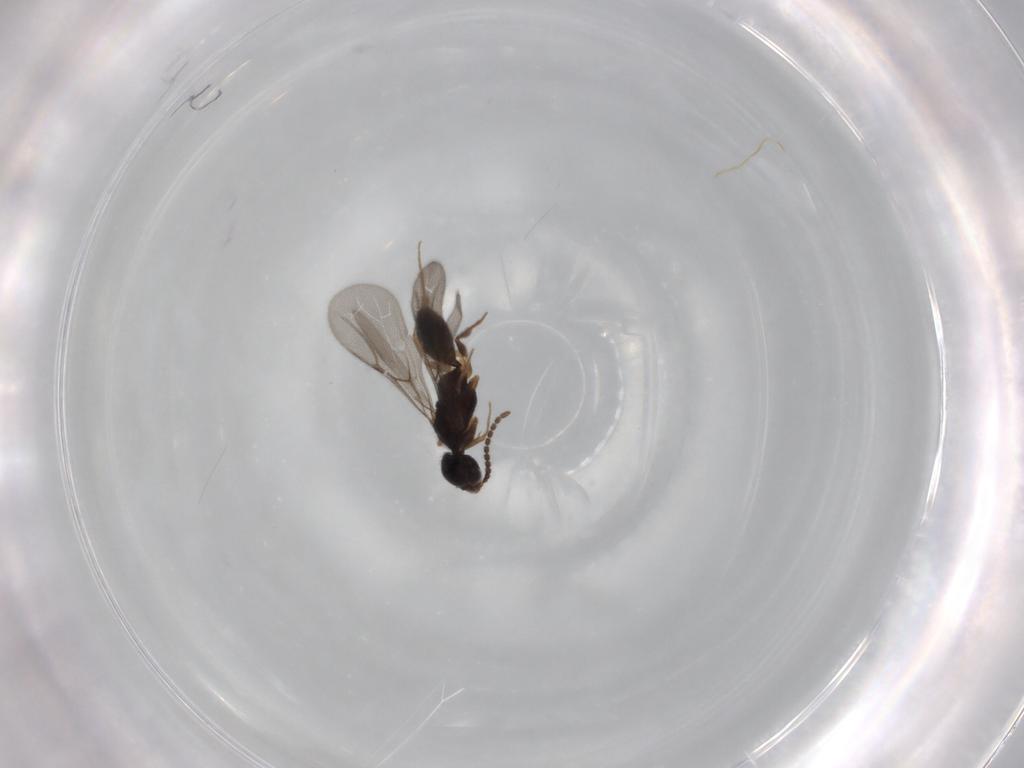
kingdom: Animalia
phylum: Arthropoda
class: Insecta
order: Hymenoptera
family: Bethylidae
